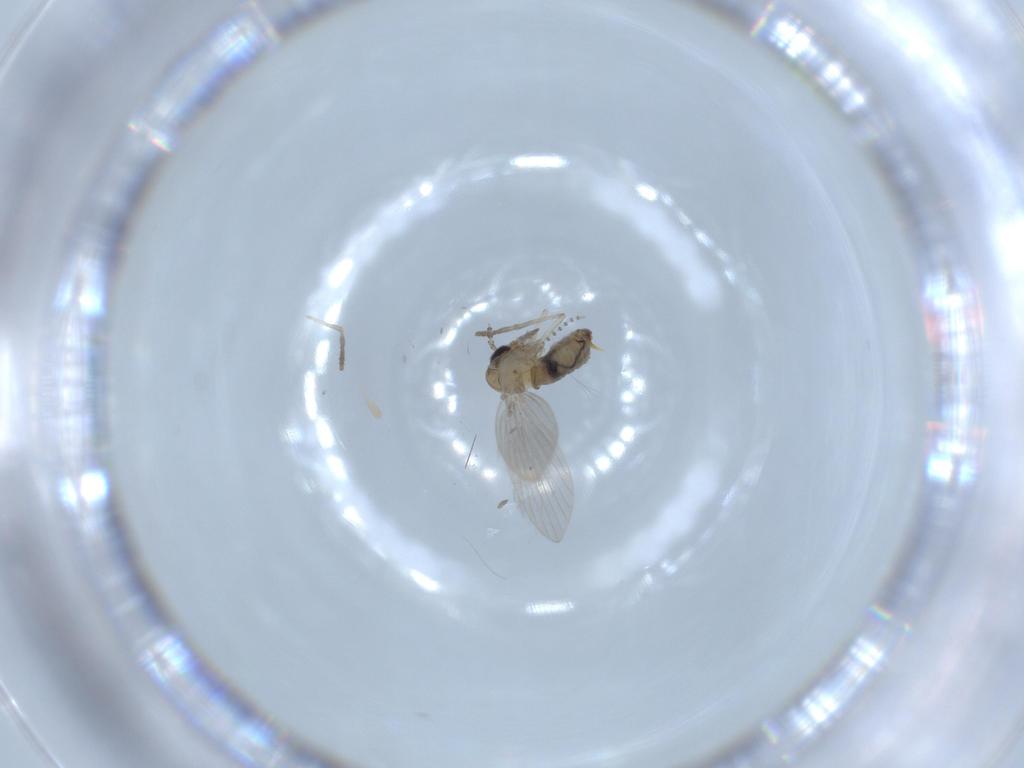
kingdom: Animalia
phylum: Arthropoda
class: Insecta
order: Diptera
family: Psychodidae
